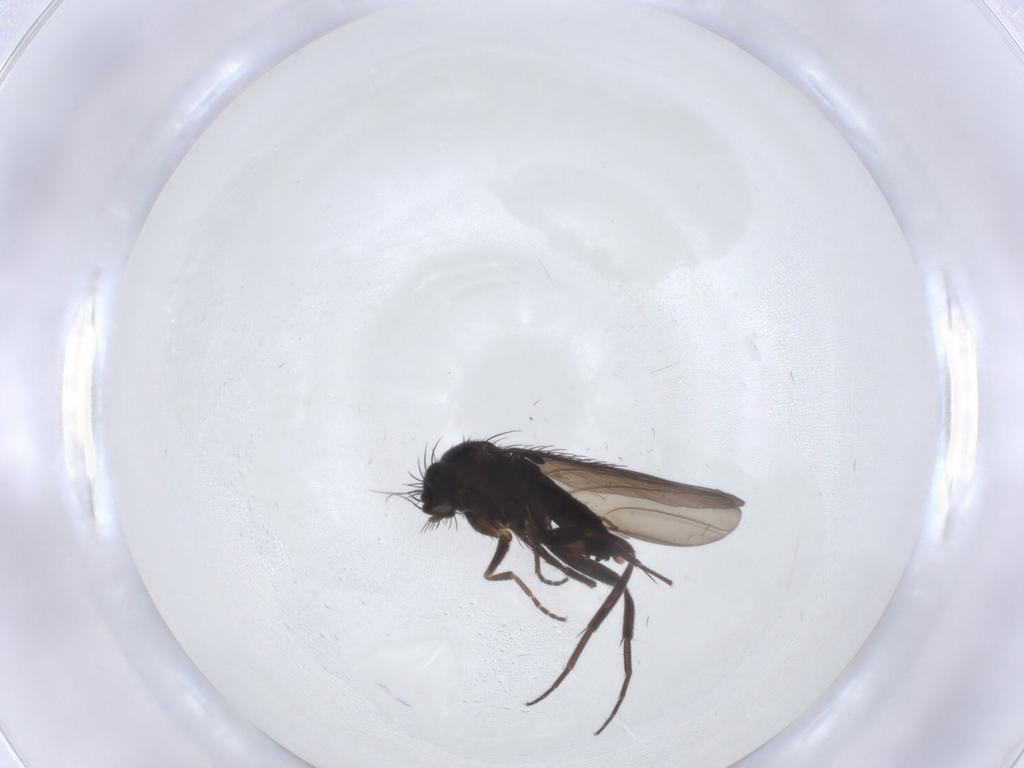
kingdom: Animalia
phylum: Arthropoda
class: Insecta
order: Diptera
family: Phoridae
